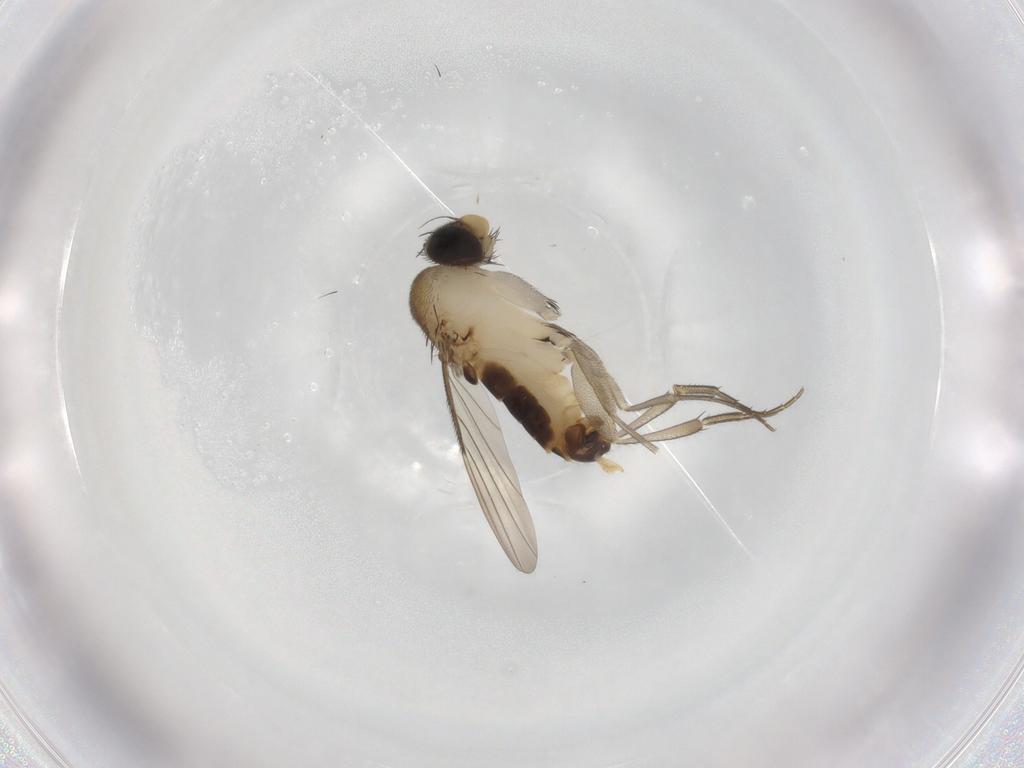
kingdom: Animalia
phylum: Arthropoda
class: Insecta
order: Diptera
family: Phoridae
